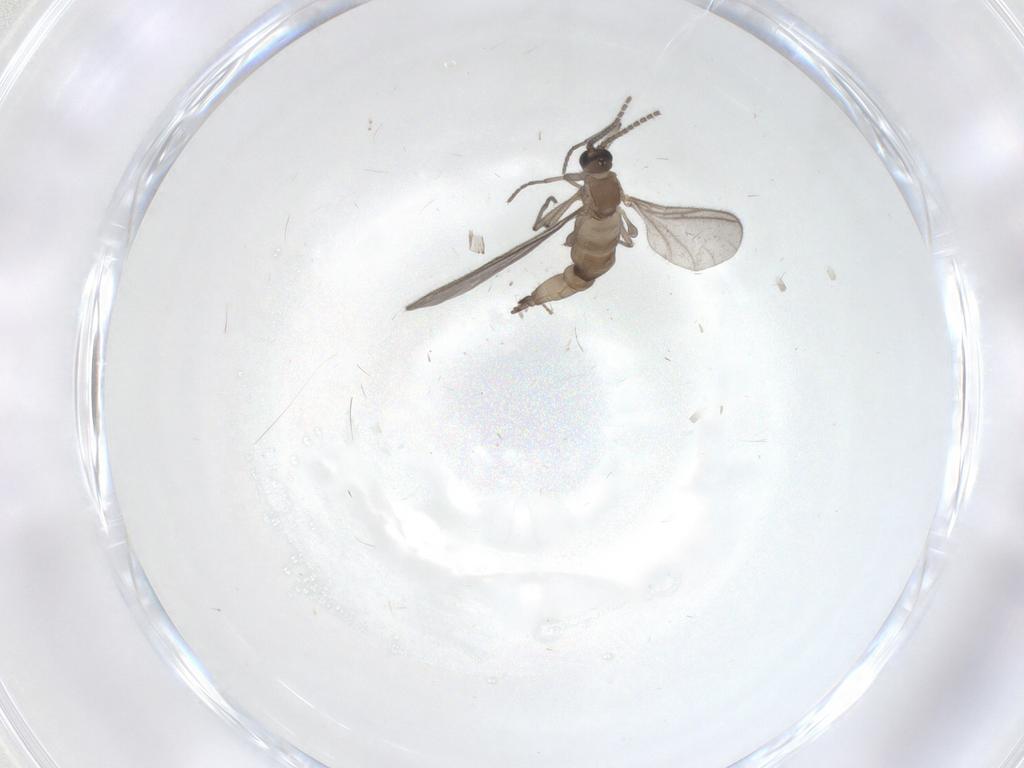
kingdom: Animalia
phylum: Arthropoda
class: Insecta
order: Diptera
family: Sciaridae
